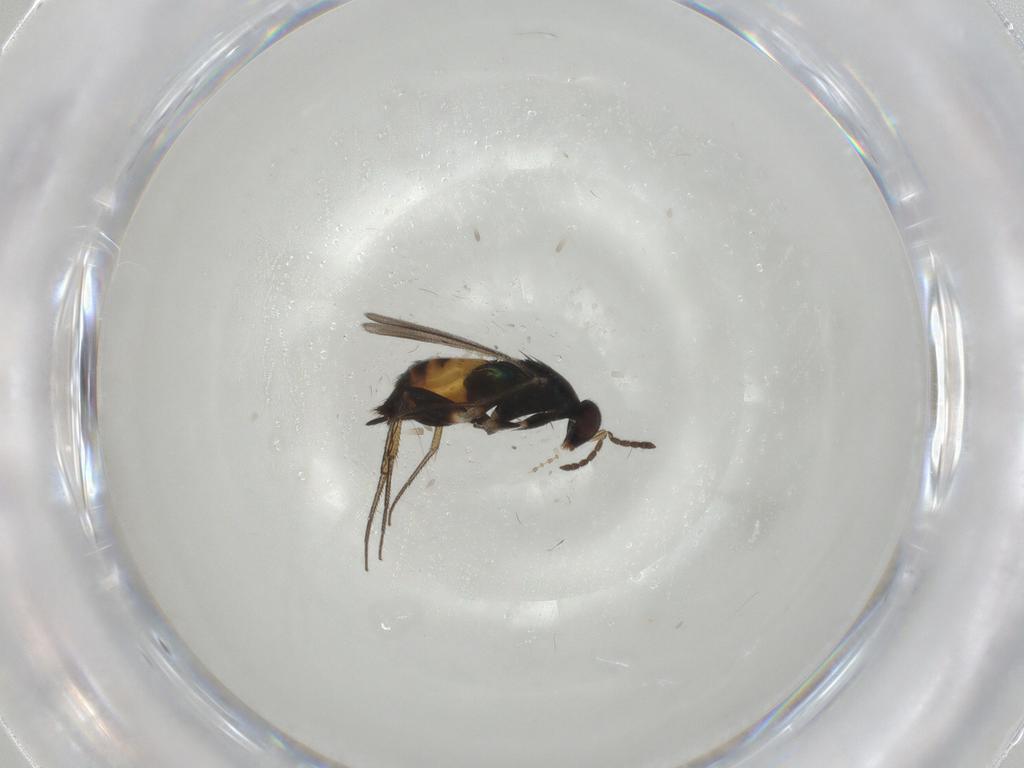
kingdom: Animalia
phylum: Arthropoda
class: Insecta
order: Hymenoptera
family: Eulophidae
